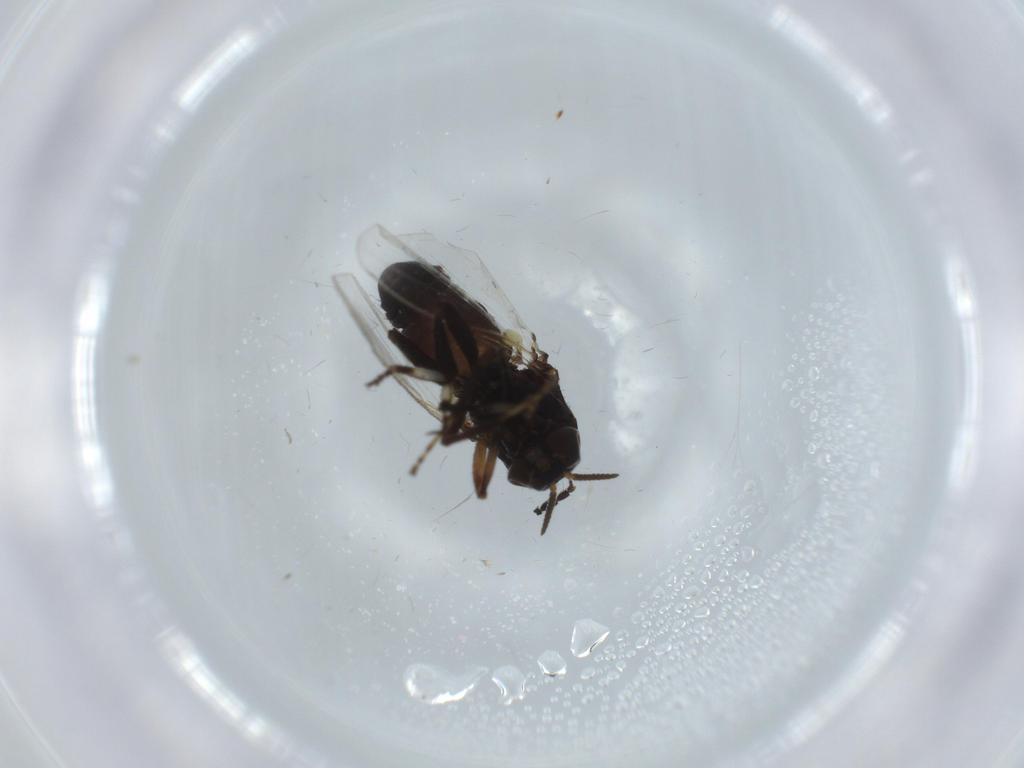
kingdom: Animalia
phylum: Arthropoda
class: Insecta
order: Diptera
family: Milichiidae
